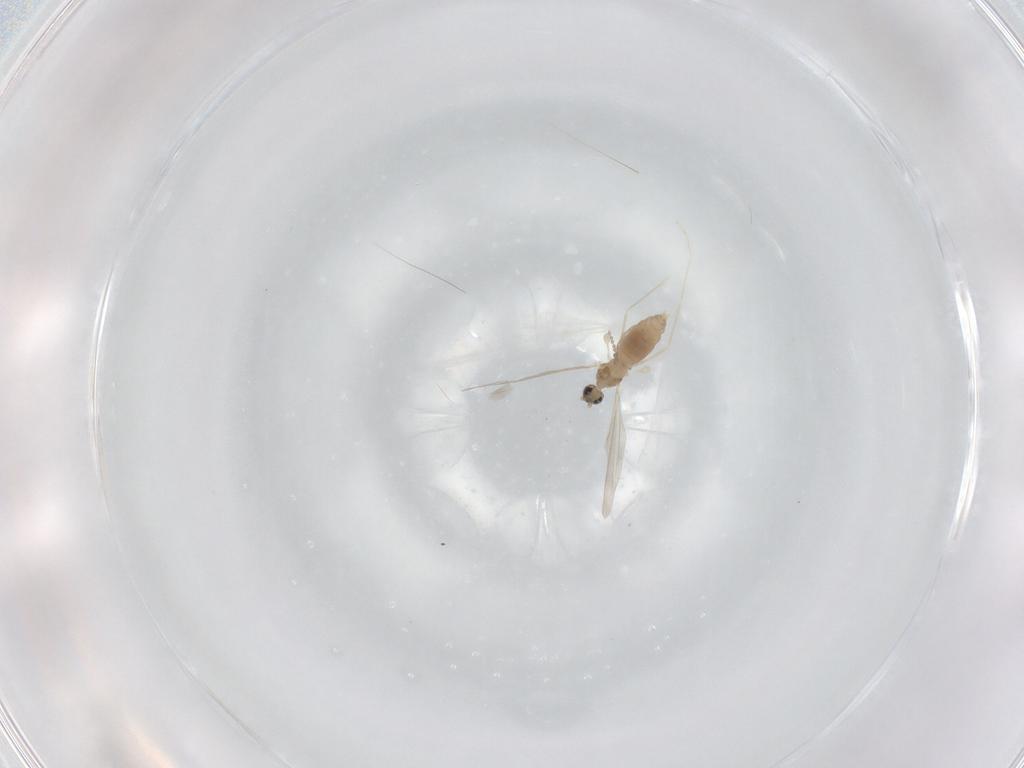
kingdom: Animalia
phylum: Arthropoda
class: Insecta
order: Diptera
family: Cecidomyiidae
